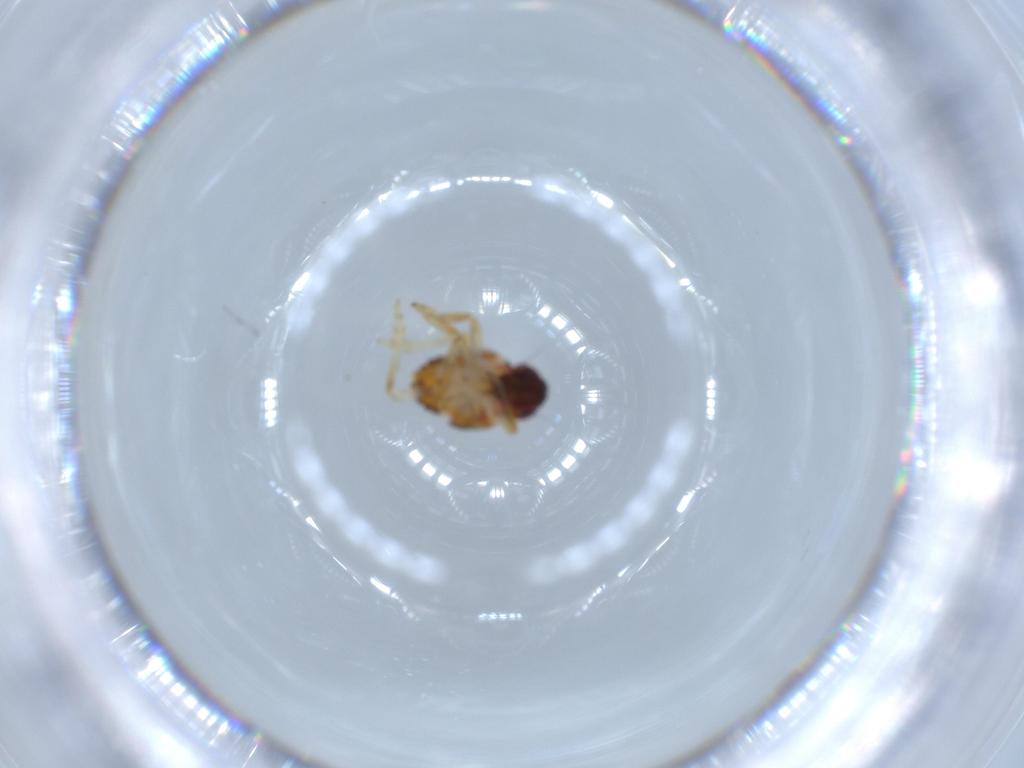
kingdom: Animalia
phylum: Arthropoda
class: Insecta
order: Hemiptera
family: Issidae
